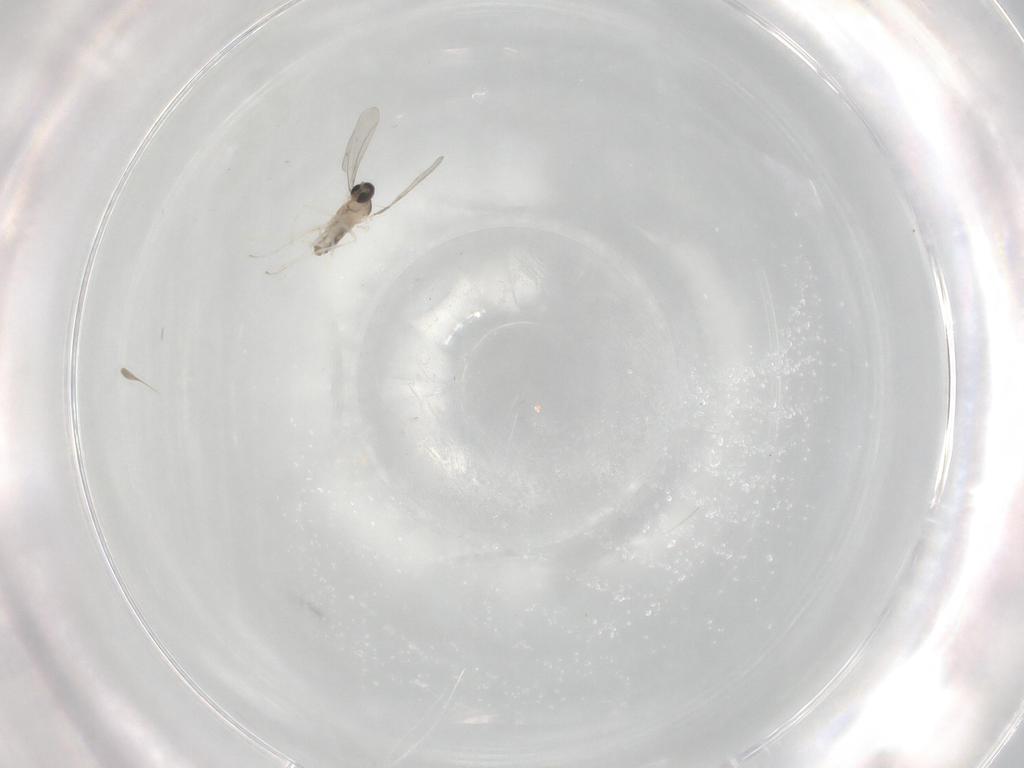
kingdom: Animalia
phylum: Arthropoda
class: Insecta
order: Diptera
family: Cecidomyiidae
